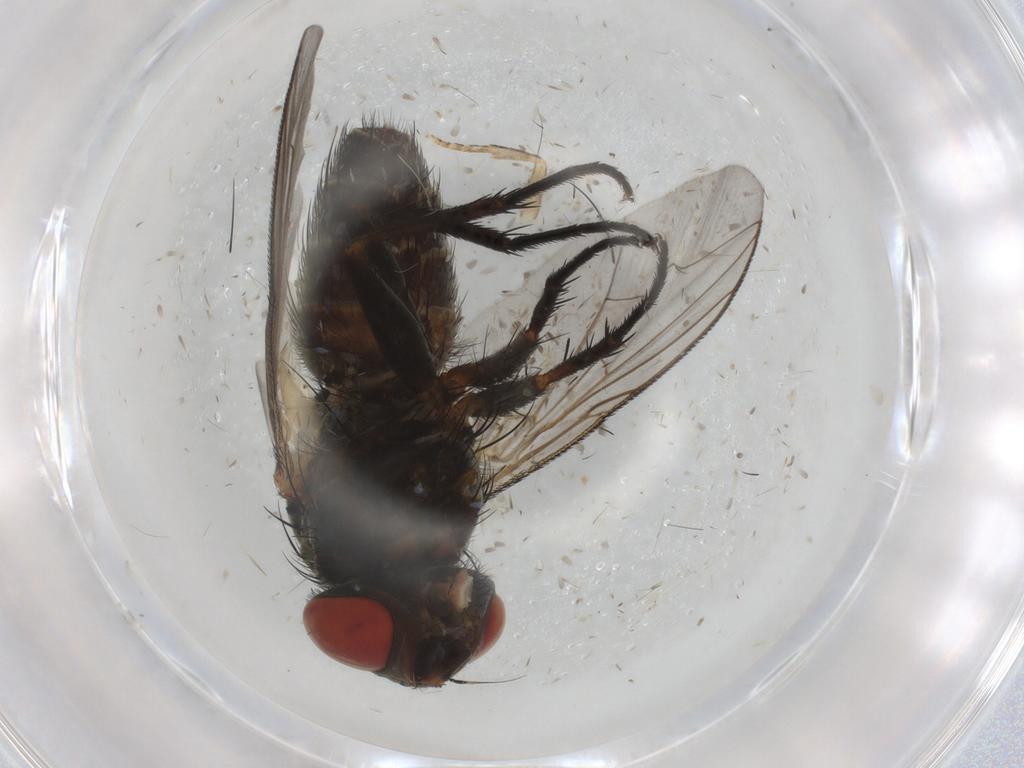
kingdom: Animalia
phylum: Arthropoda
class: Insecta
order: Diptera
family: Sarcophagidae
